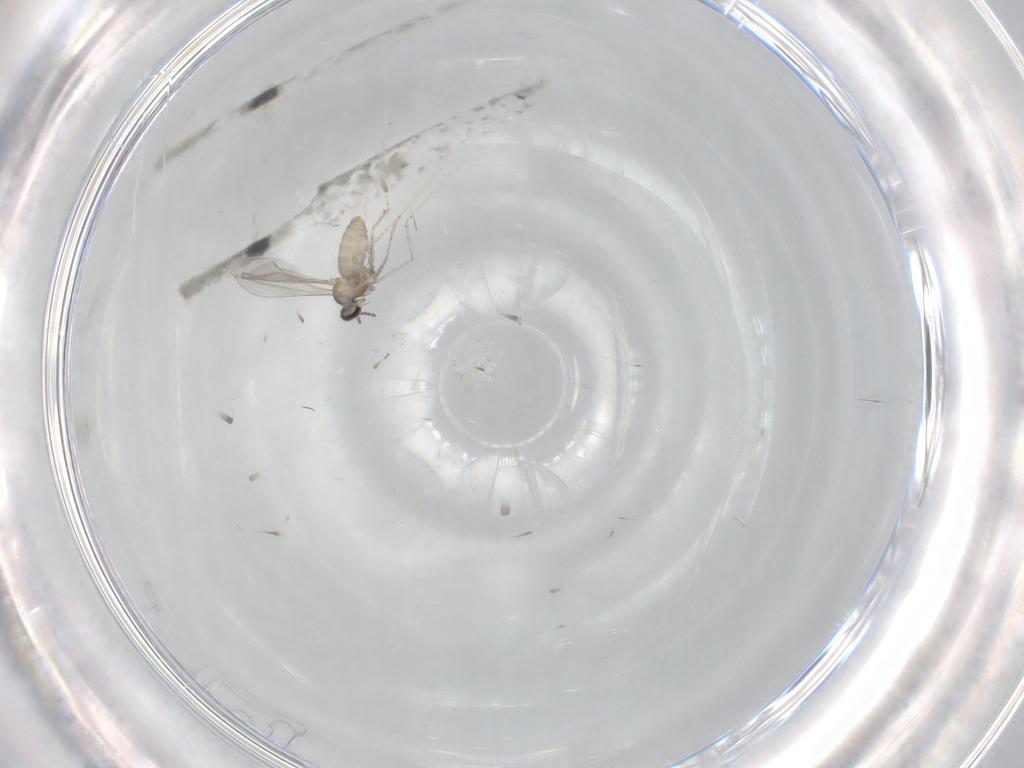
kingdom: Animalia
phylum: Arthropoda
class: Insecta
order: Diptera
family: Cecidomyiidae
